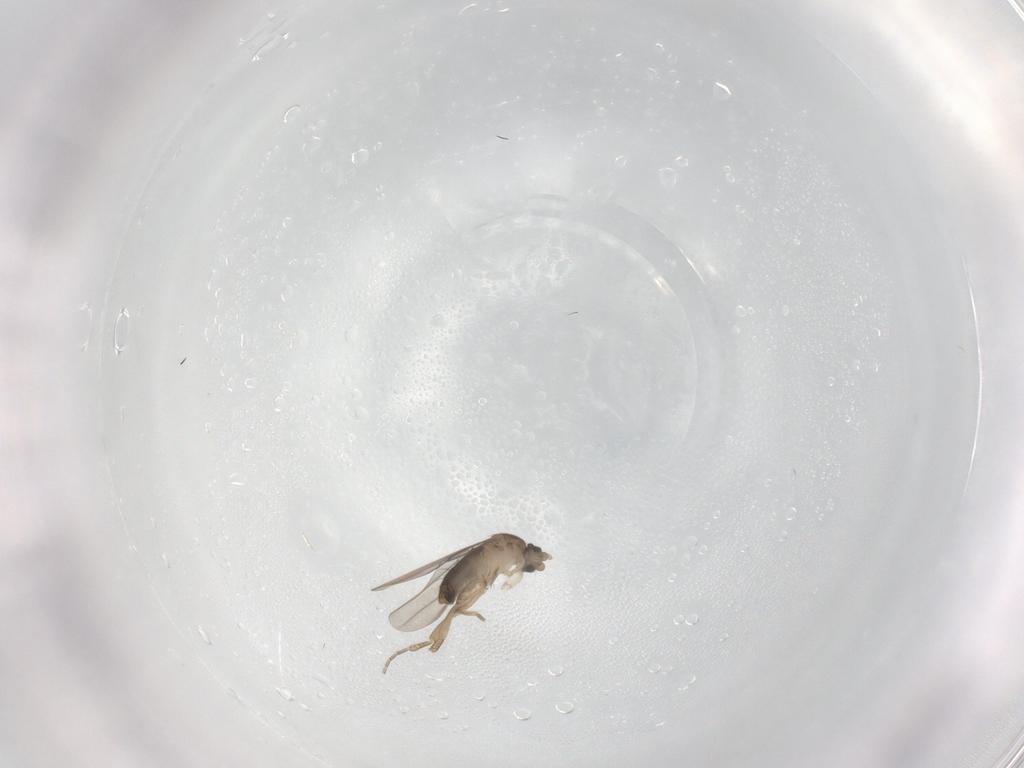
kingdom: Animalia
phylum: Arthropoda
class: Insecta
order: Diptera
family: Phoridae
